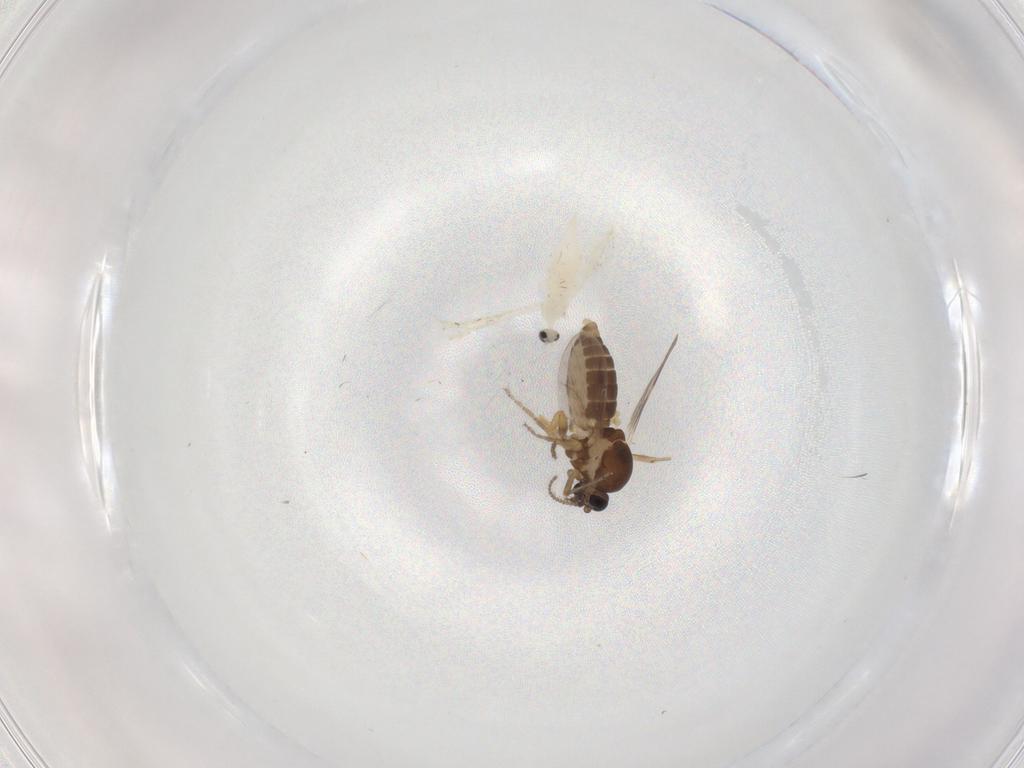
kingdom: Animalia
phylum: Arthropoda
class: Insecta
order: Diptera
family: Cecidomyiidae
